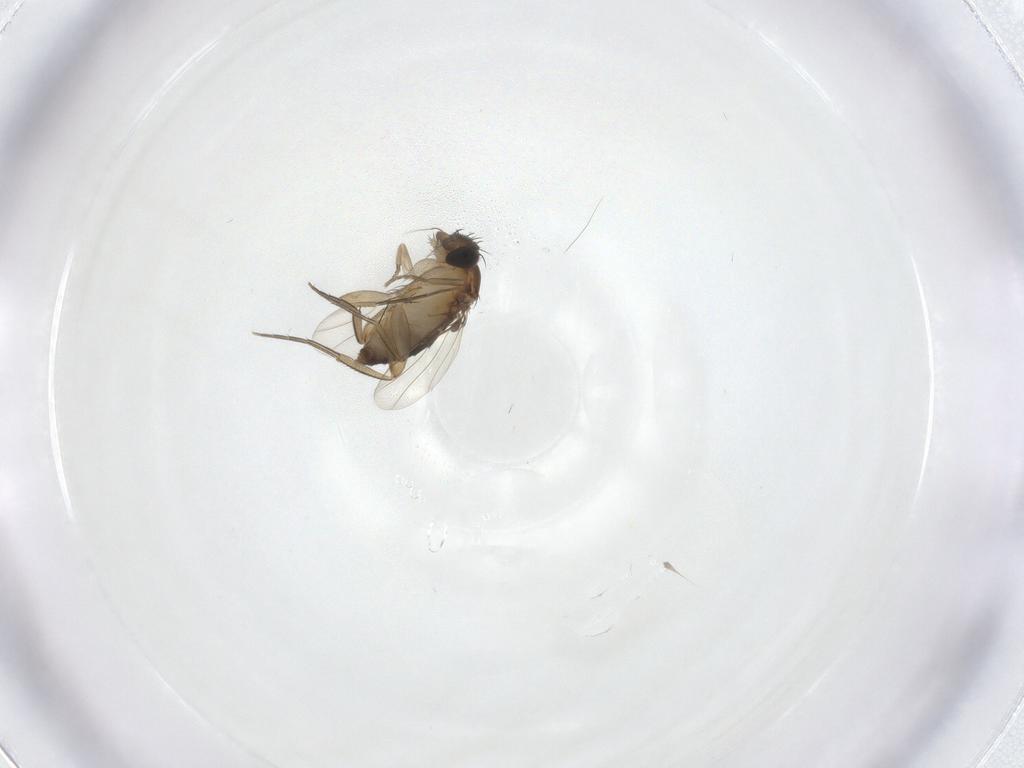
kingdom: Animalia
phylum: Arthropoda
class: Insecta
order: Diptera
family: Phoridae
